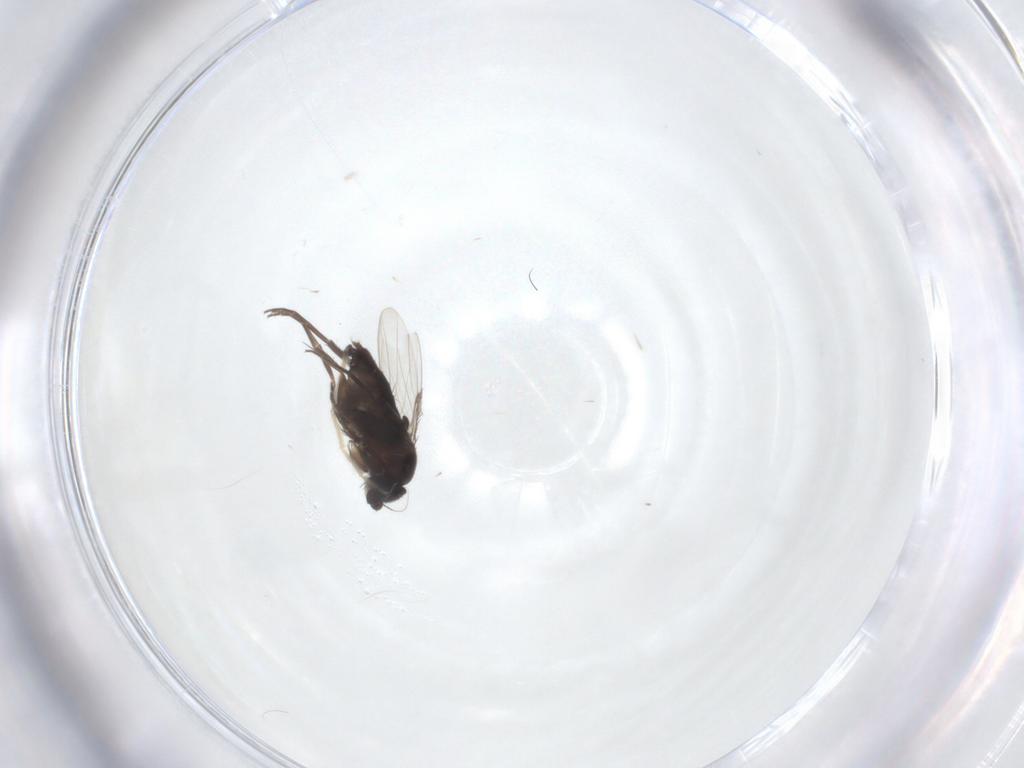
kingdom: Animalia
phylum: Arthropoda
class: Insecta
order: Diptera
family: Phoridae
